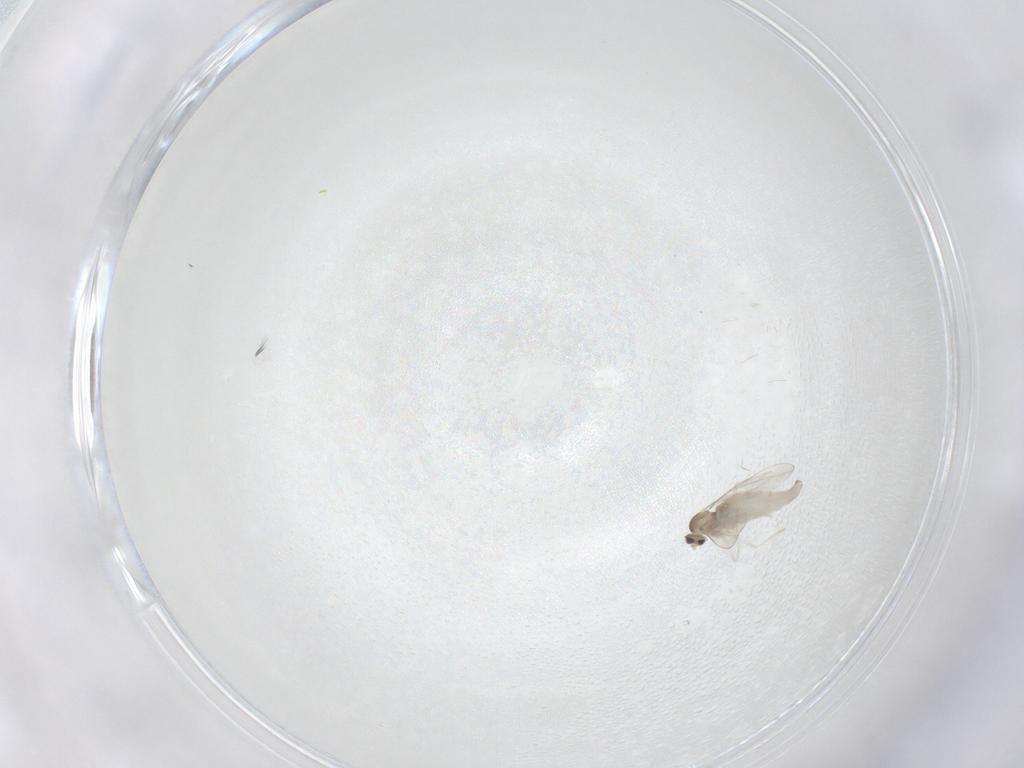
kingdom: Animalia
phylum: Arthropoda
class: Insecta
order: Diptera
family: Cecidomyiidae
